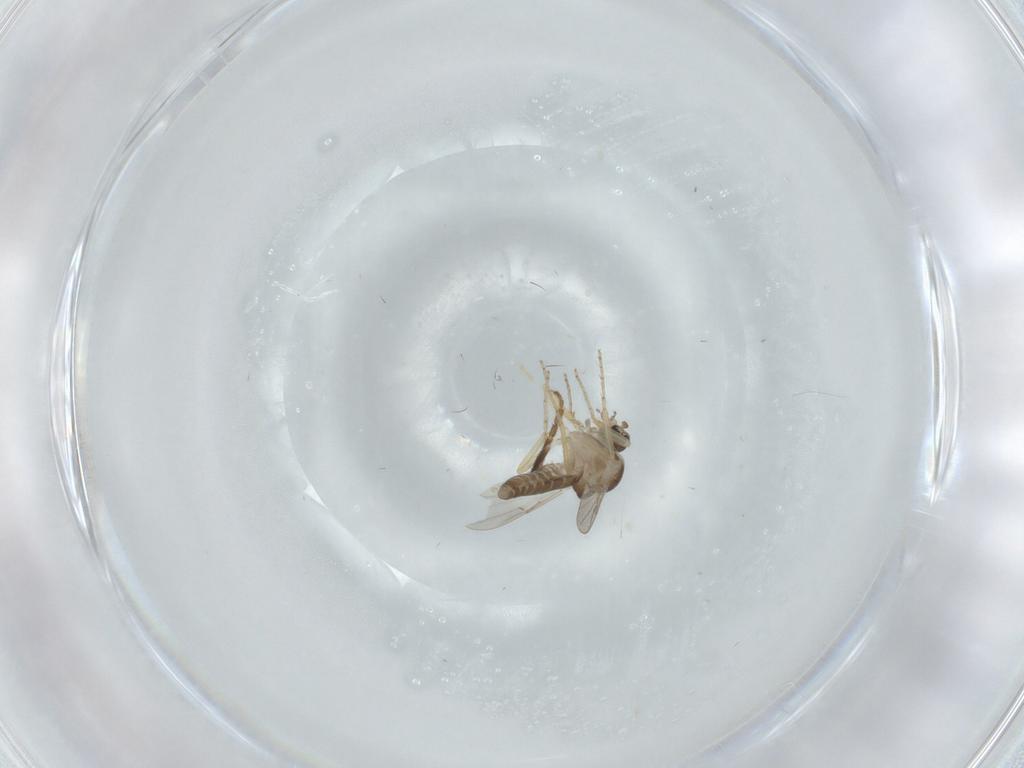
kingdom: Animalia
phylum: Arthropoda
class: Insecta
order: Diptera
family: Ceratopogonidae
